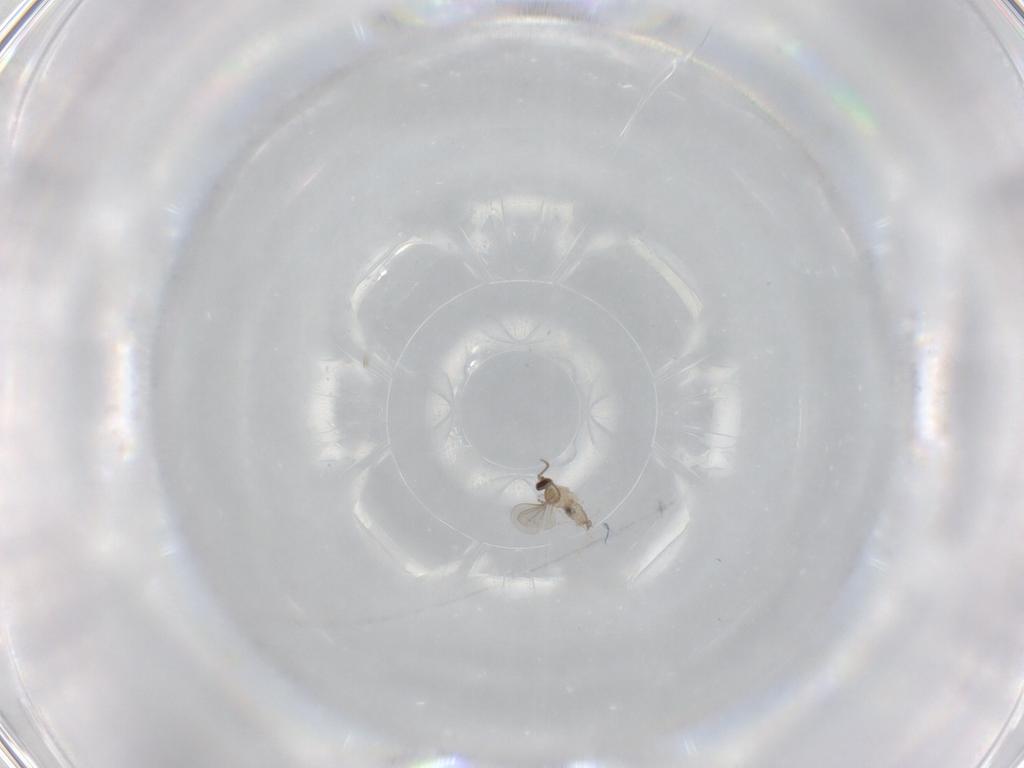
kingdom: Animalia
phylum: Arthropoda
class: Insecta
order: Diptera
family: Cecidomyiidae
